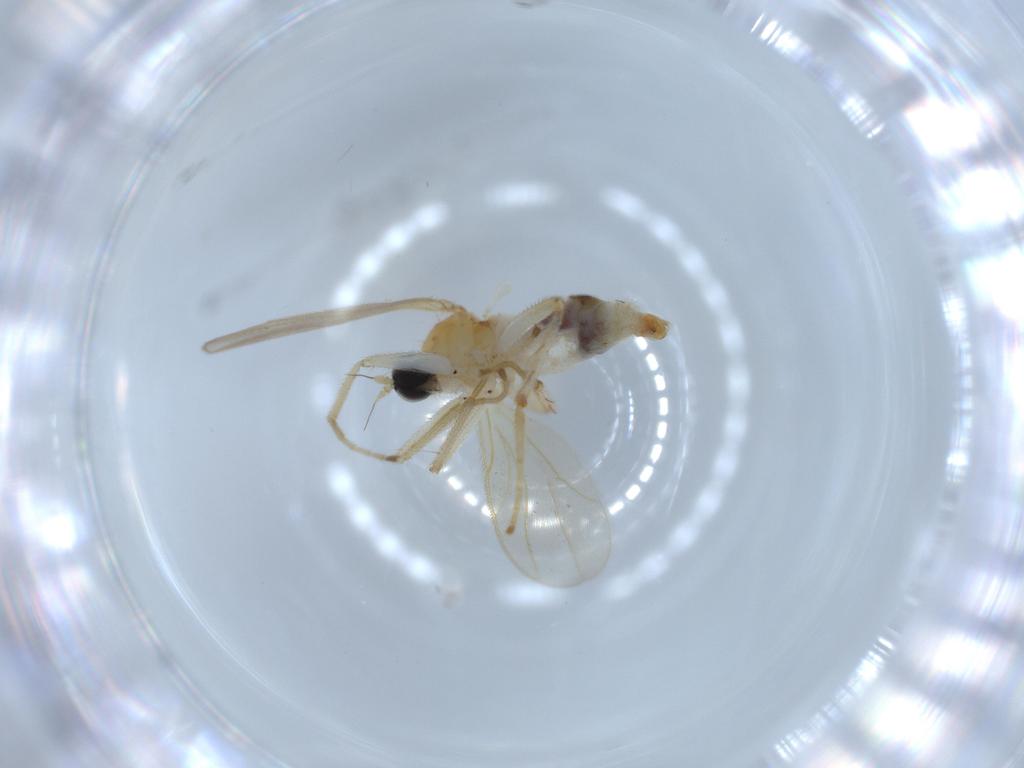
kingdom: Animalia
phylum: Arthropoda
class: Insecta
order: Diptera
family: Hybotidae
